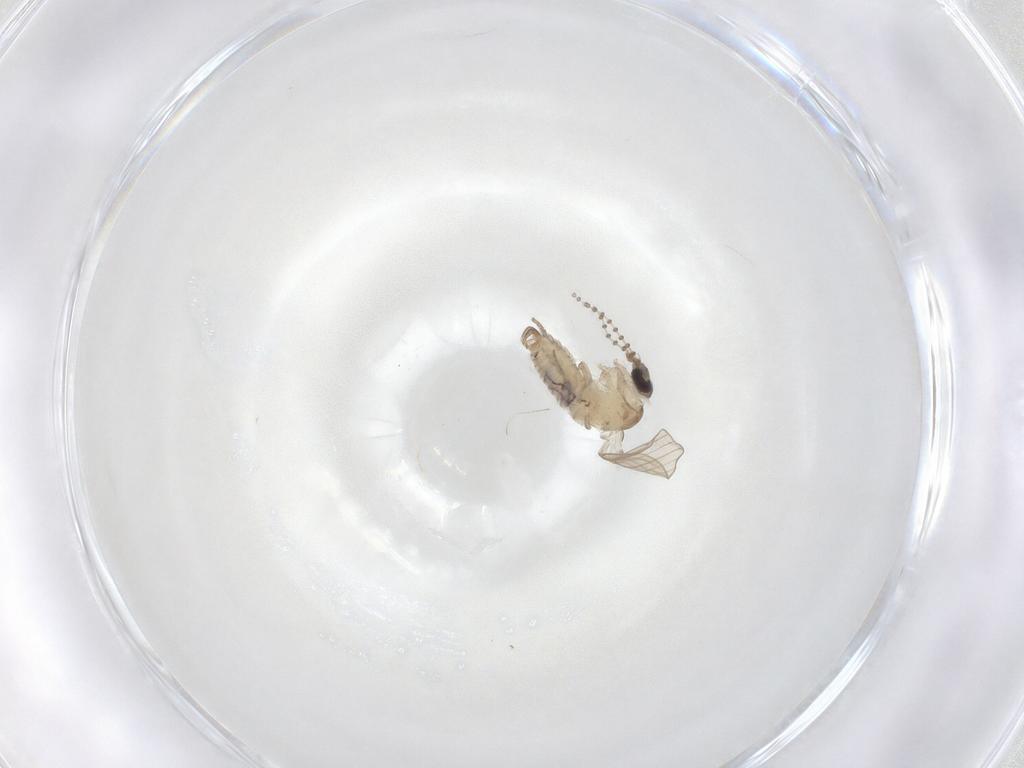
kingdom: Animalia
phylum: Arthropoda
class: Insecta
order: Diptera
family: Psychodidae
